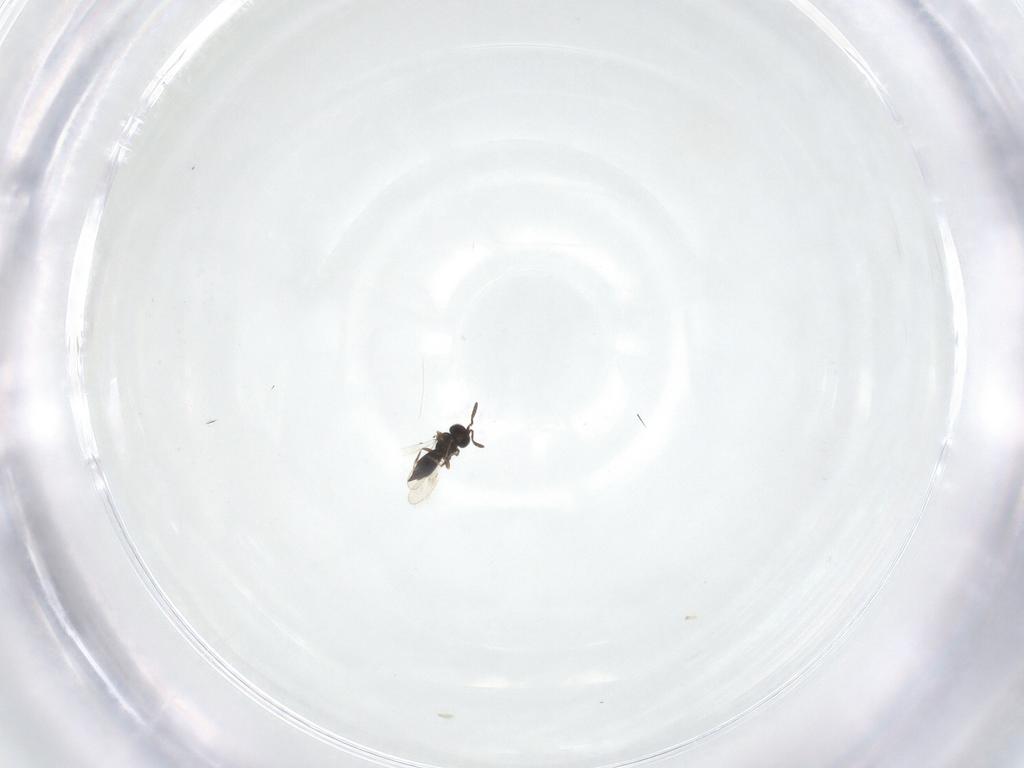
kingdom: Animalia
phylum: Arthropoda
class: Insecta
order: Hymenoptera
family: Scelionidae
